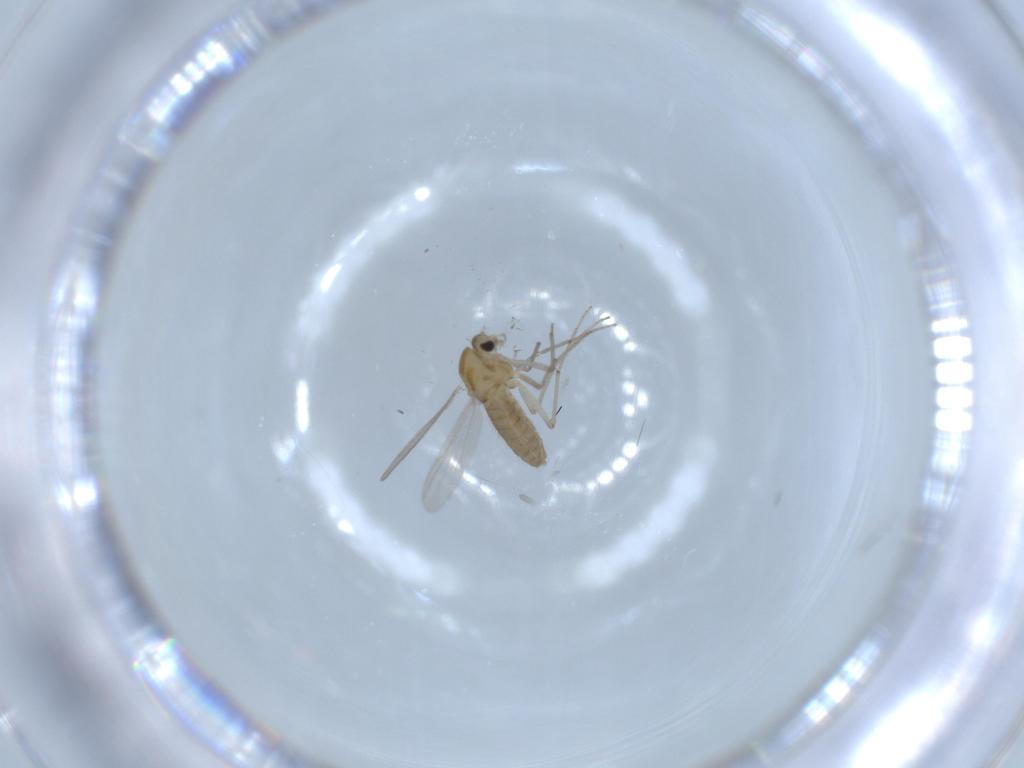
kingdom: Animalia
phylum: Arthropoda
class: Insecta
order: Diptera
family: Chironomidae
